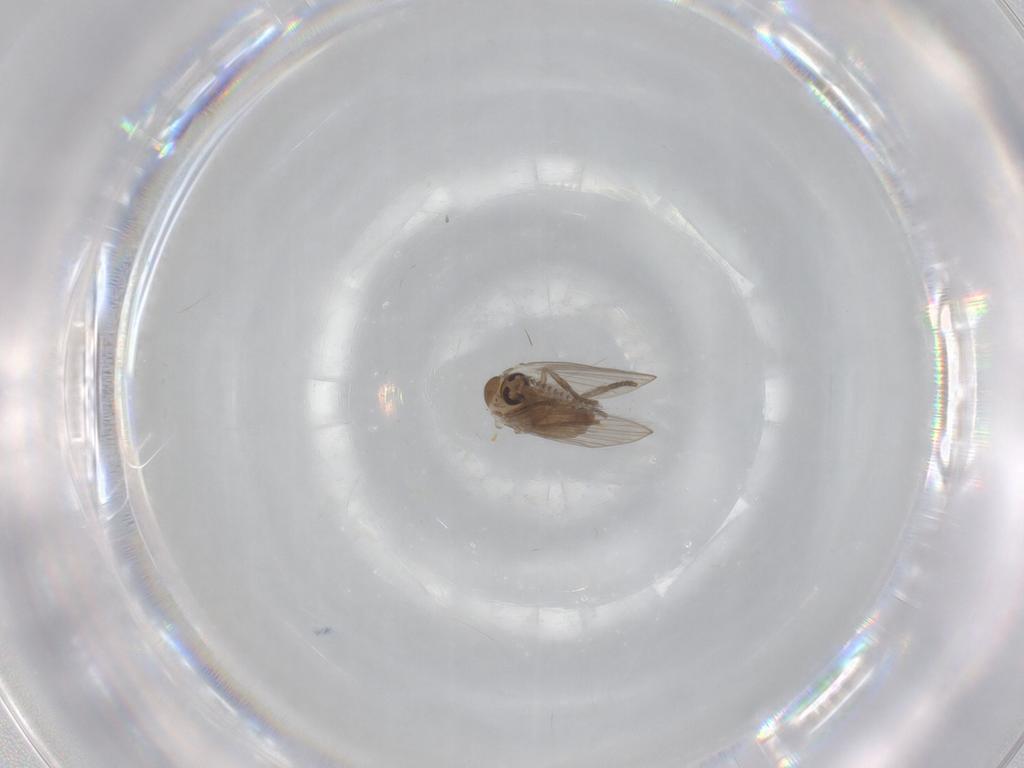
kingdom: Animalia
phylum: Arthropoda
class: Insecta
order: Diptera
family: Psychodidae
